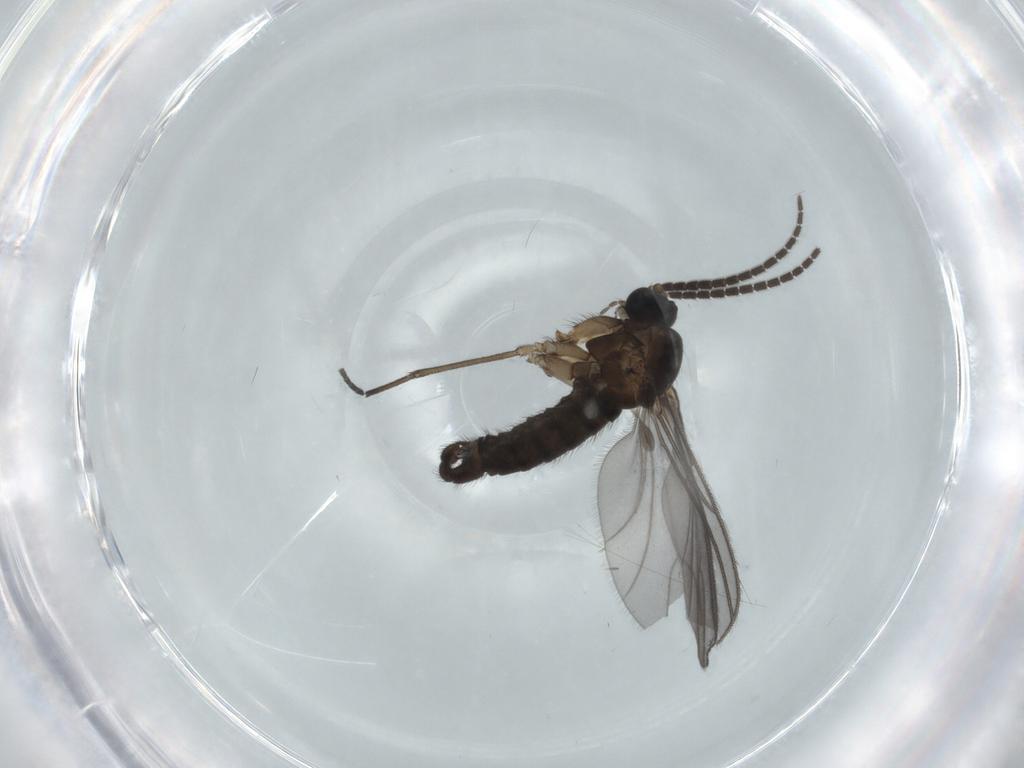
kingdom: Animalia
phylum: Arthropoda
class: Insecta
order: Diptera
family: Sciaridae
